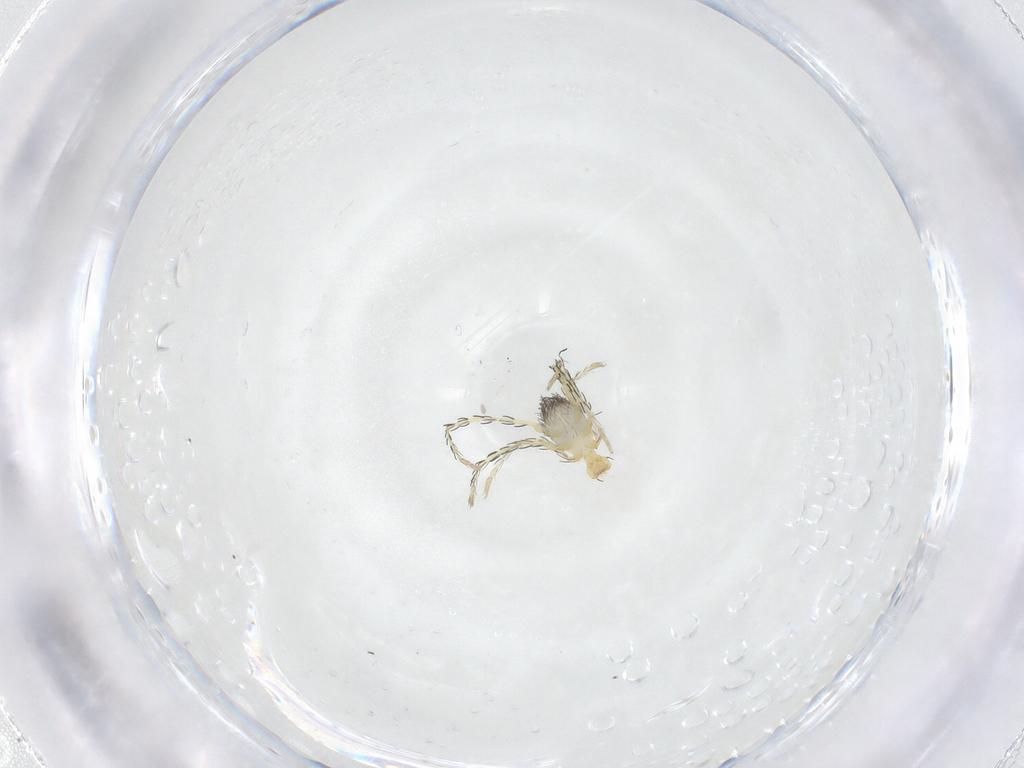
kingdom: Animalia
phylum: Arthropoda
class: Arachnida
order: Trombidiformes
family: Erythraeidae
